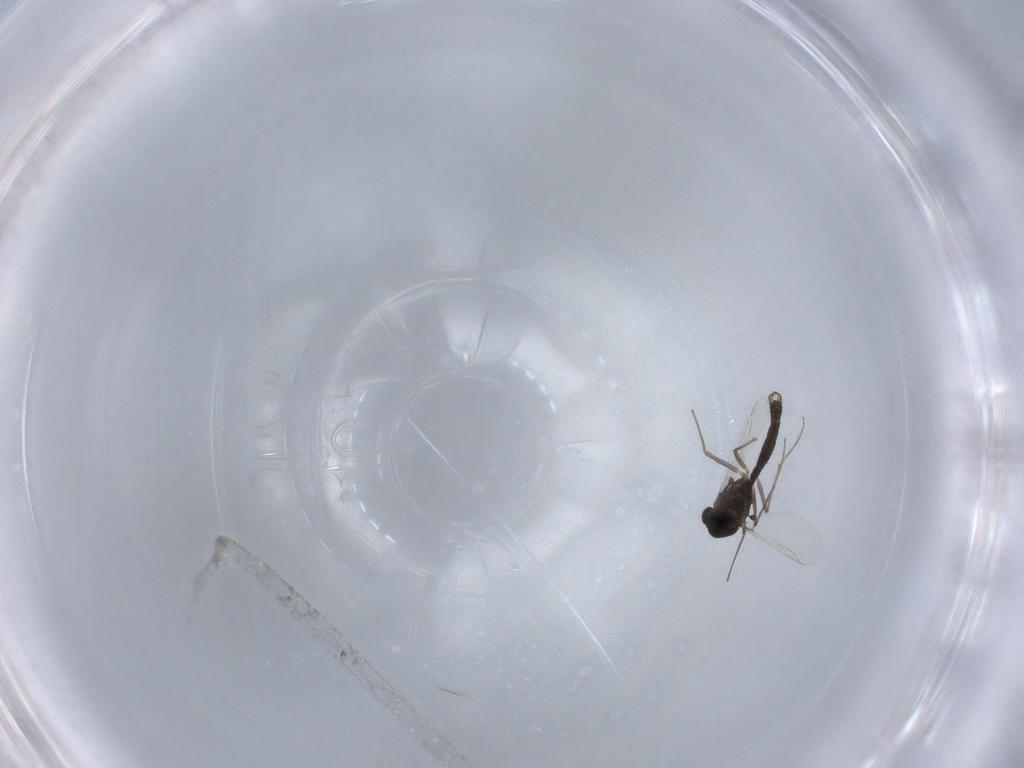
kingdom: Animalia
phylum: Arthropoda
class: Insecta
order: Diptera
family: Chironomidae
